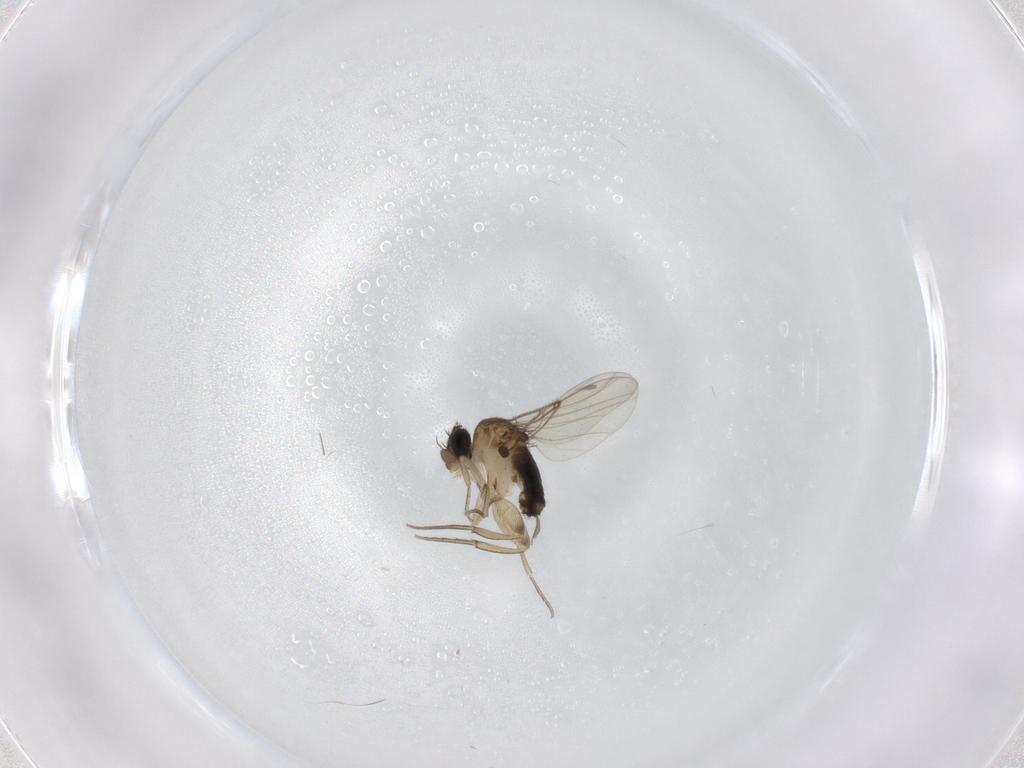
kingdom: Animalia
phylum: Arthropoda
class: Insecta
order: Diptera
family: Phoridae
